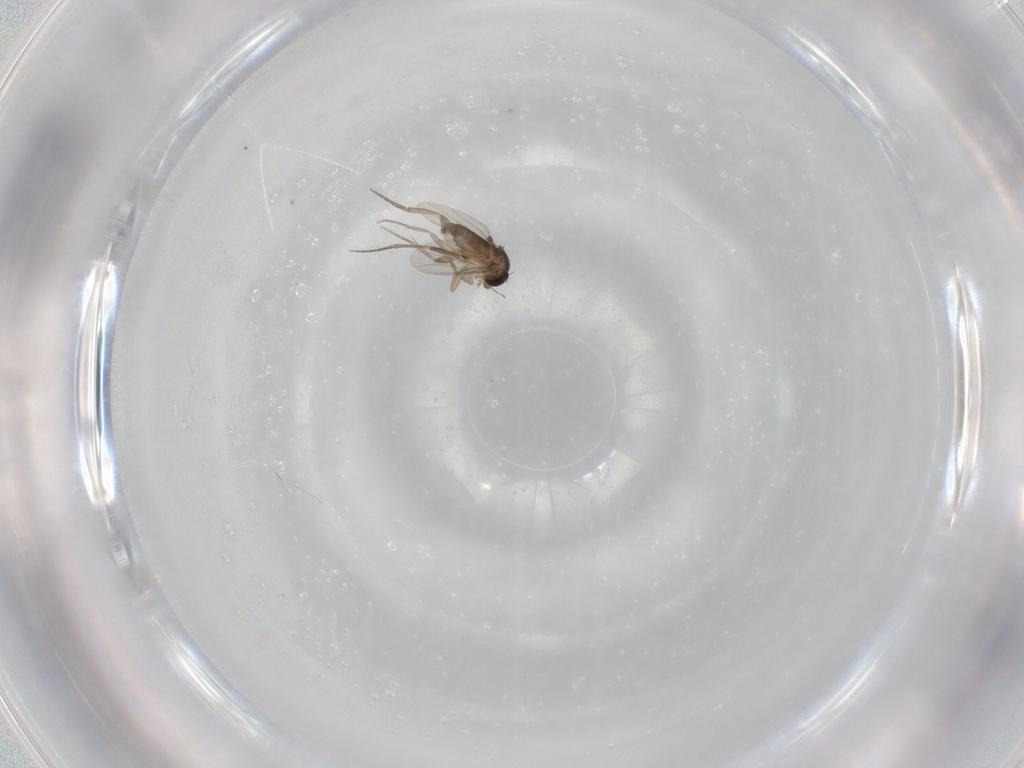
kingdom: Animalia
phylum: Arthropoda
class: Insecta
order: Diptera
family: Phoridae
